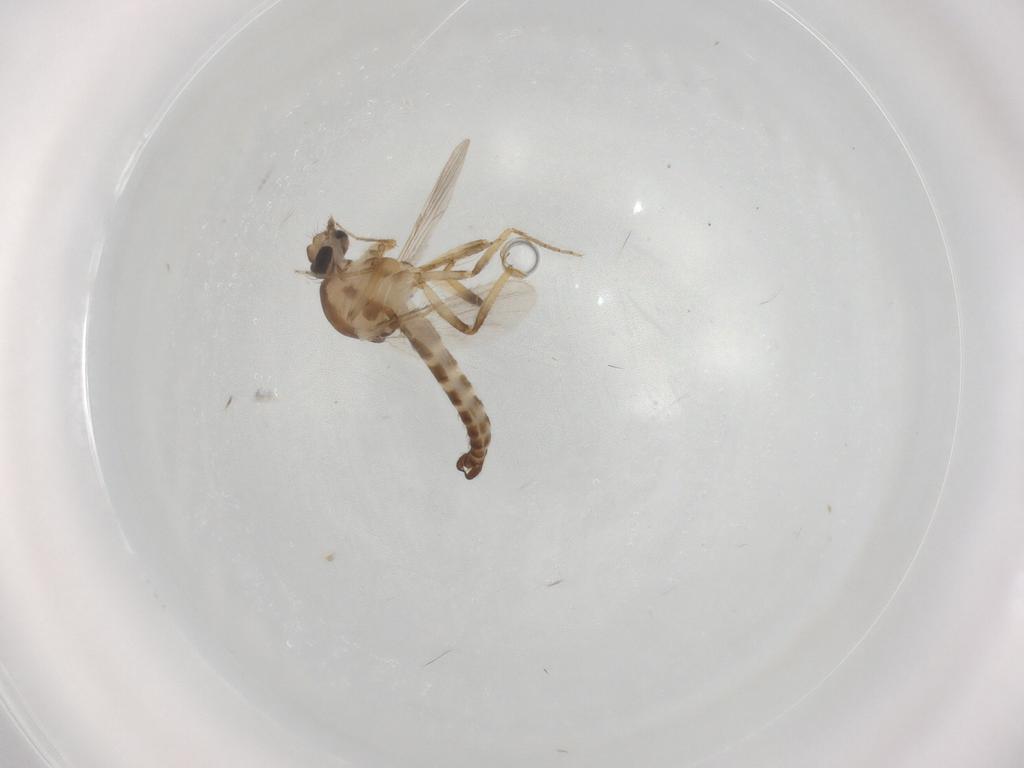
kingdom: Animalia
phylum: Arthropoda
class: Insecta
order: Diptera
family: Ceratopogonidae
